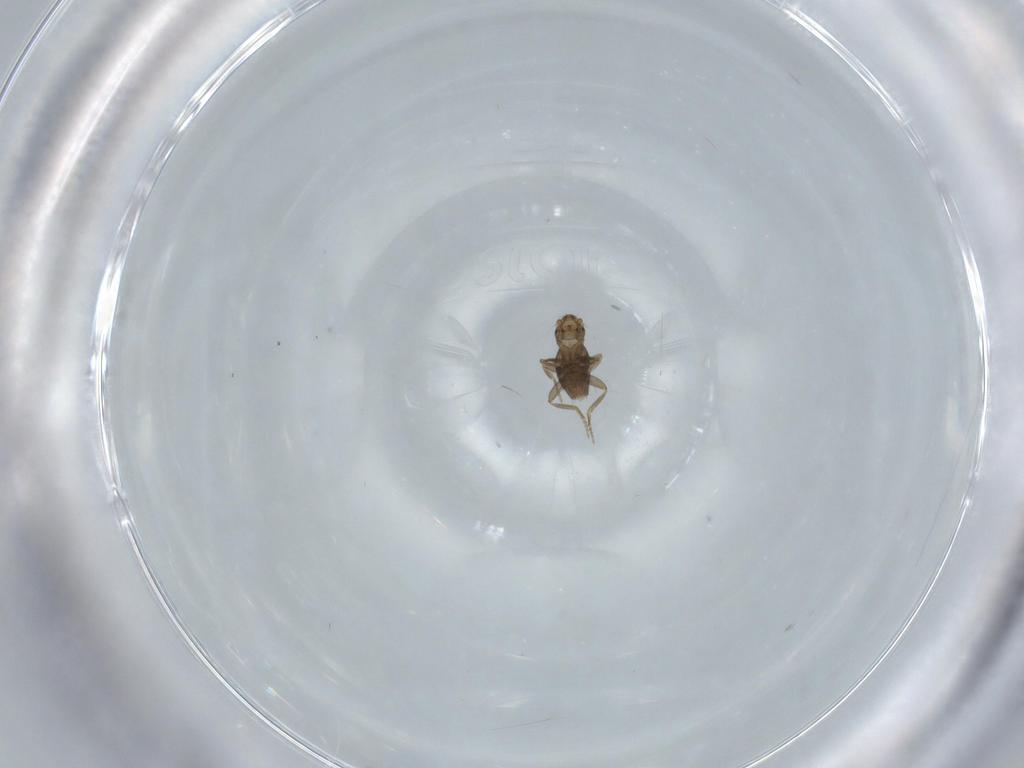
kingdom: Animalia
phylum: Arthropoda
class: Insecta
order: Diptera
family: Phoridae
